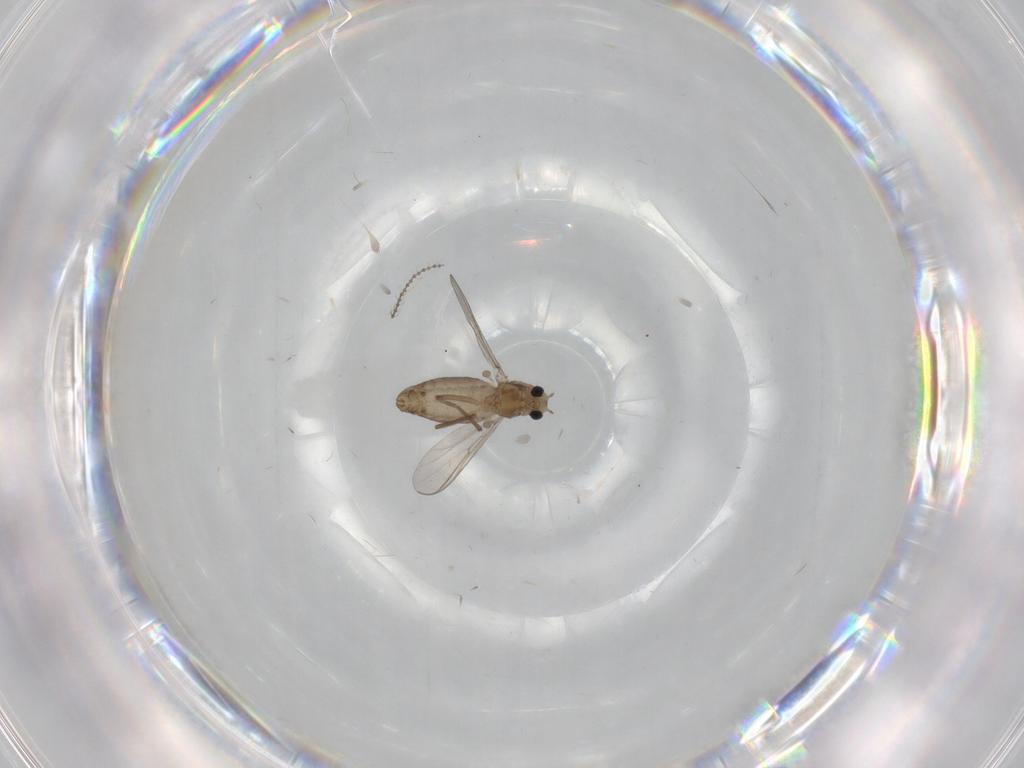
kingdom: Animalia
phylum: Arthropoda
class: Insecta
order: Diptera
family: Chironomidae
